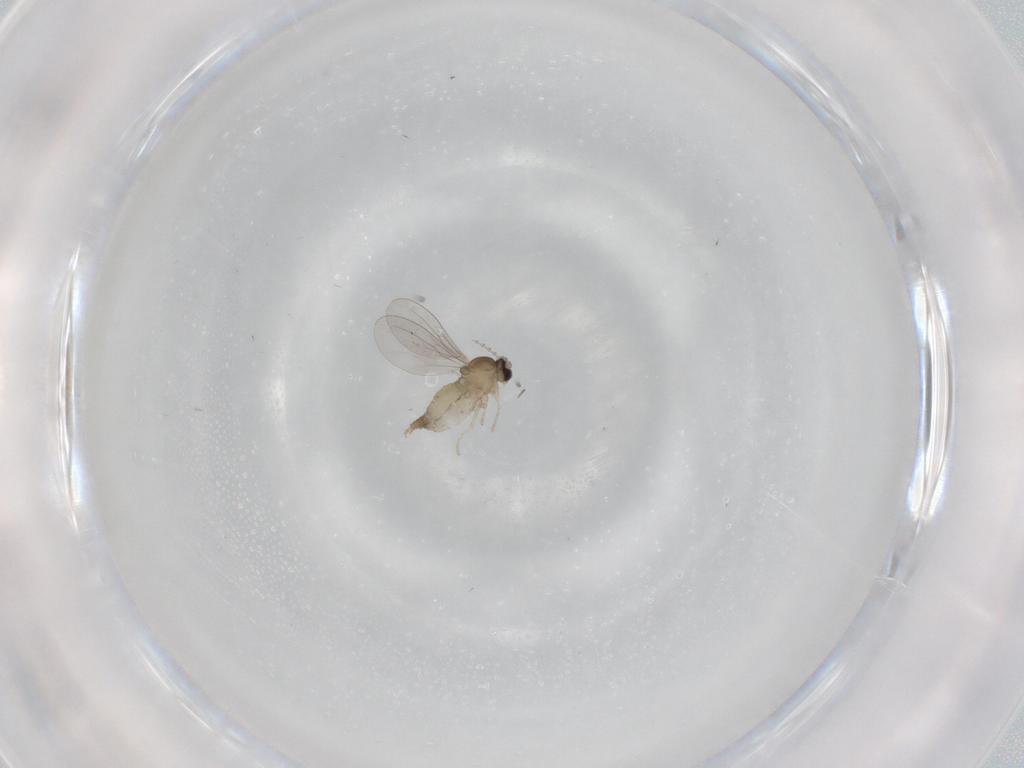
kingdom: Animalia
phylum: Arthropoda
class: Insecta
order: Diptera
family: Cecidomyiidae
